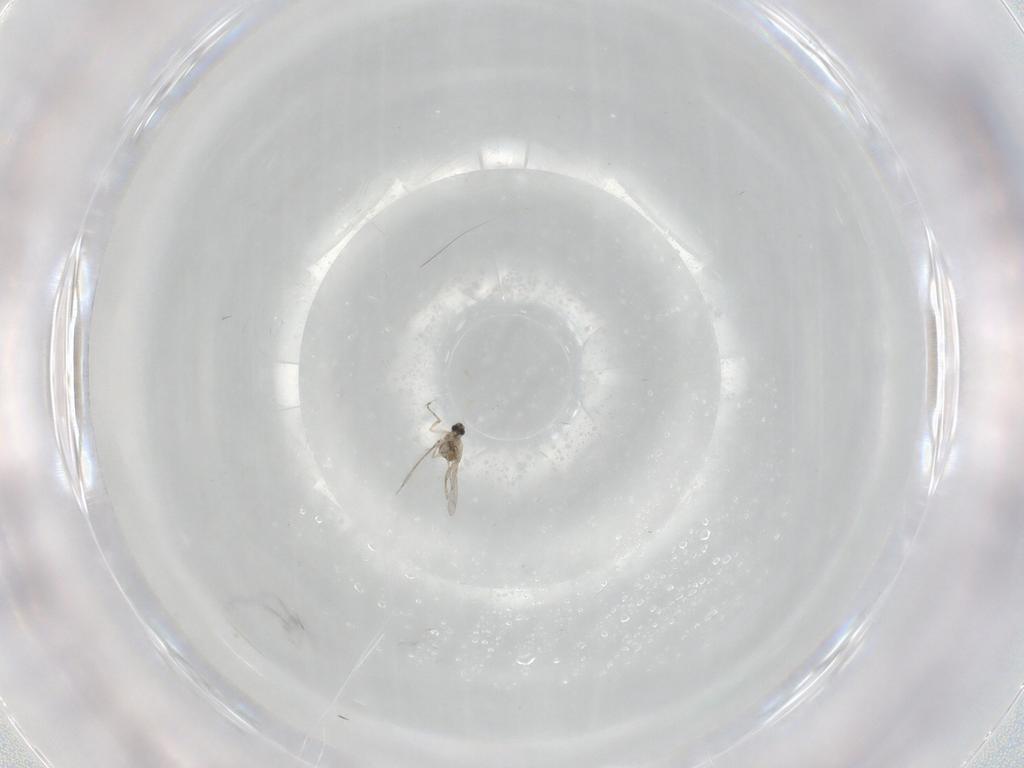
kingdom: Animalia
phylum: Arthropoda
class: Insecta
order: Diptera
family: Cecidomyiidae
